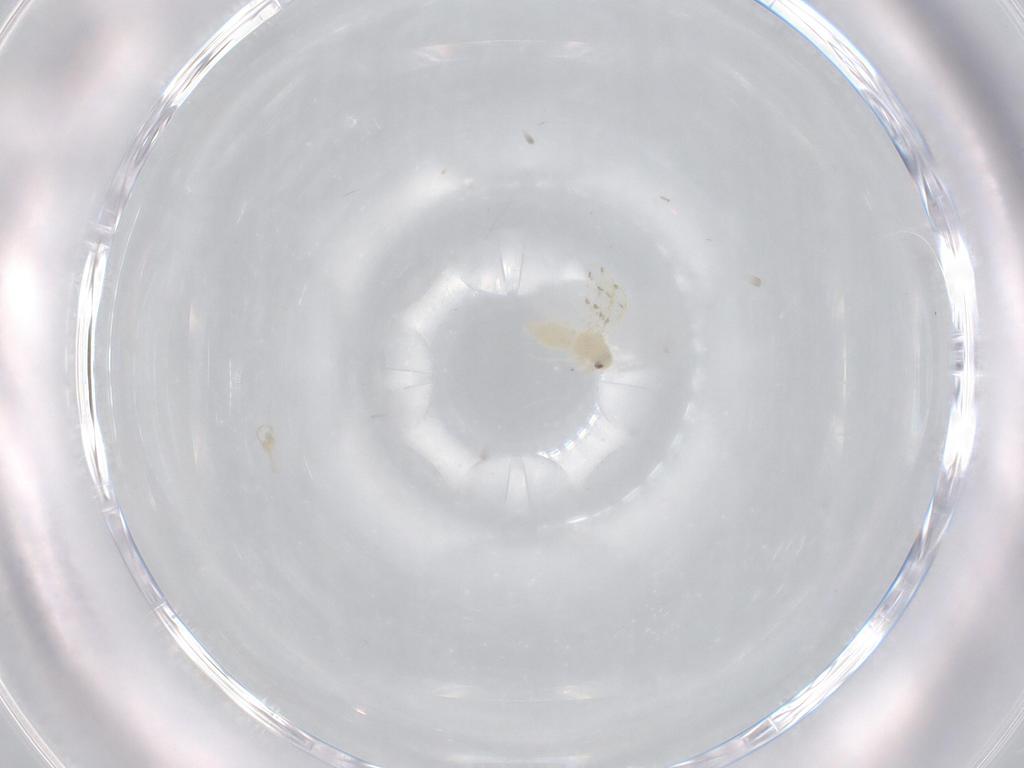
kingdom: Animalia
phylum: Arthropoda
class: Insecta
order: Hemiptera
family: Aleyrodidae
